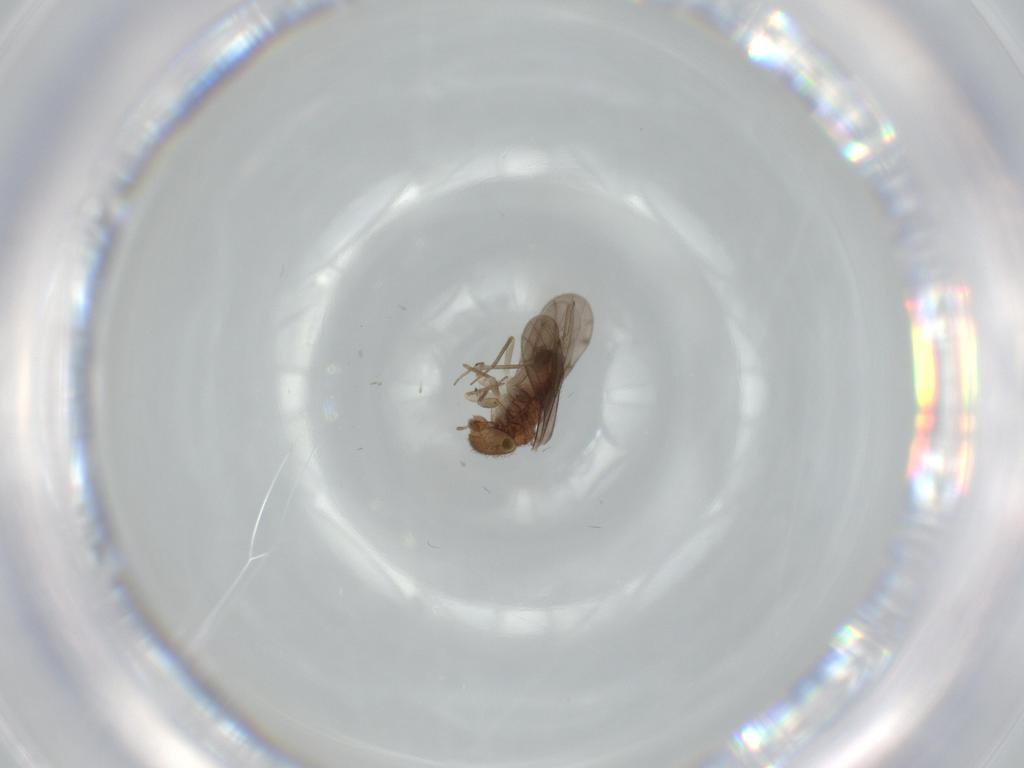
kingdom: Animalia
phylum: Arthropoda
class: Insecta
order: Psocodea
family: Ectopsocidae
